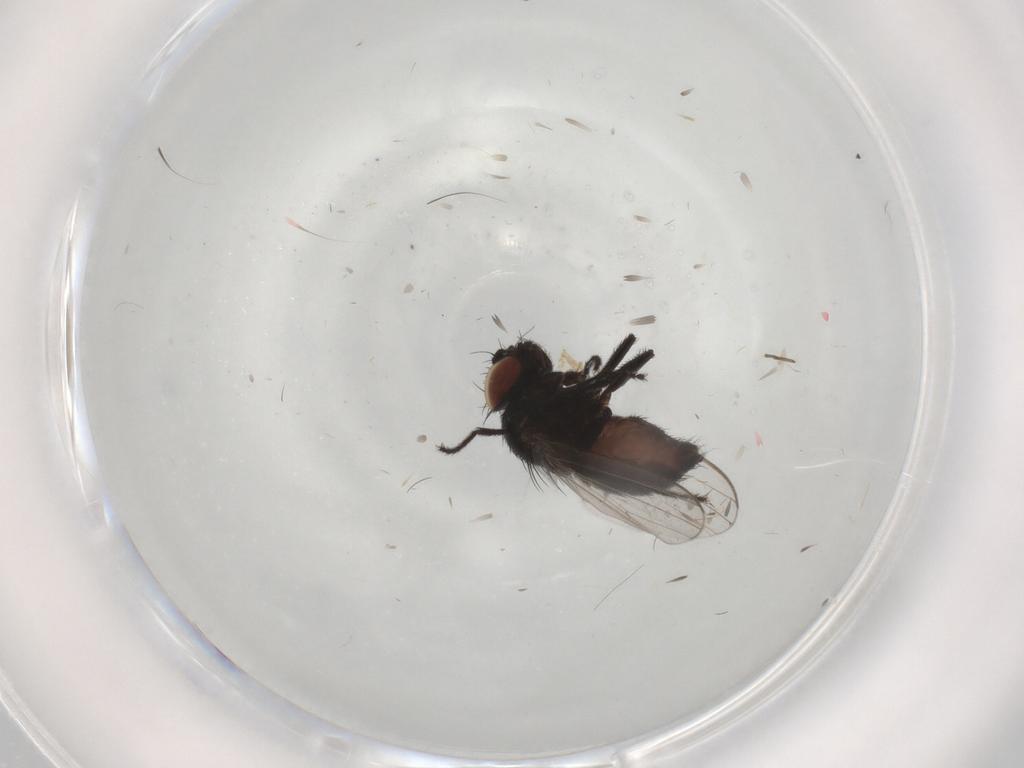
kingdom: Animalia
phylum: Arthropoda
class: Insecta
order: Diptera
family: Milichiidae
